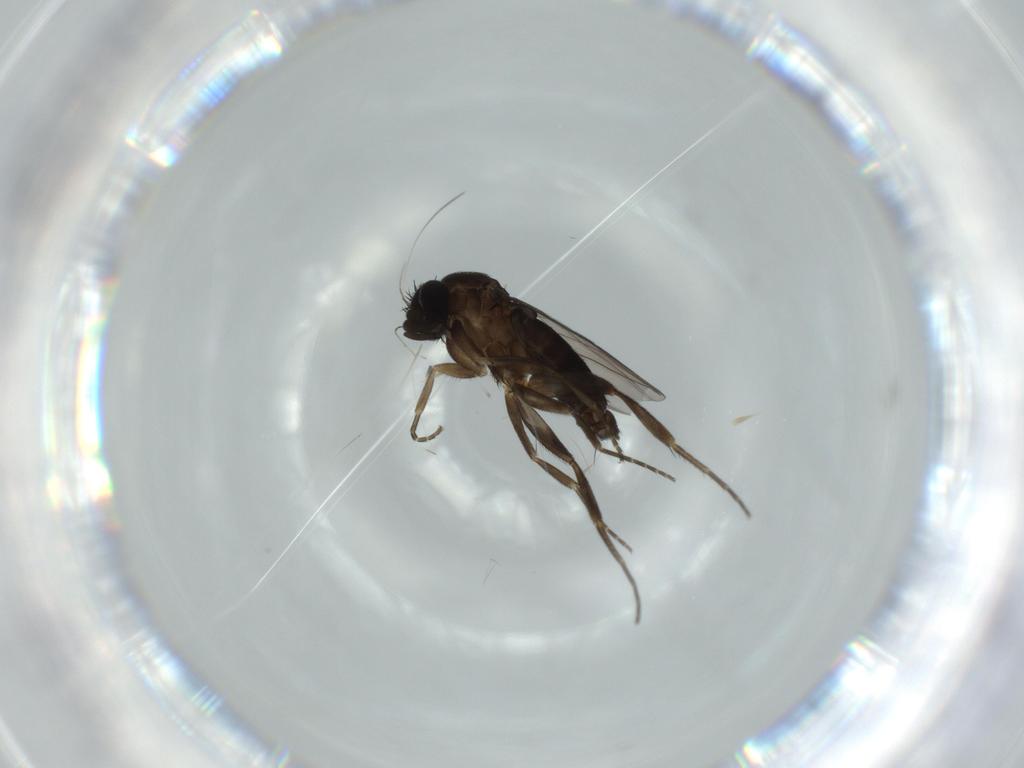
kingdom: Animalia
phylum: Arthropoda
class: Insecta
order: Diptera
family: Phoridae
